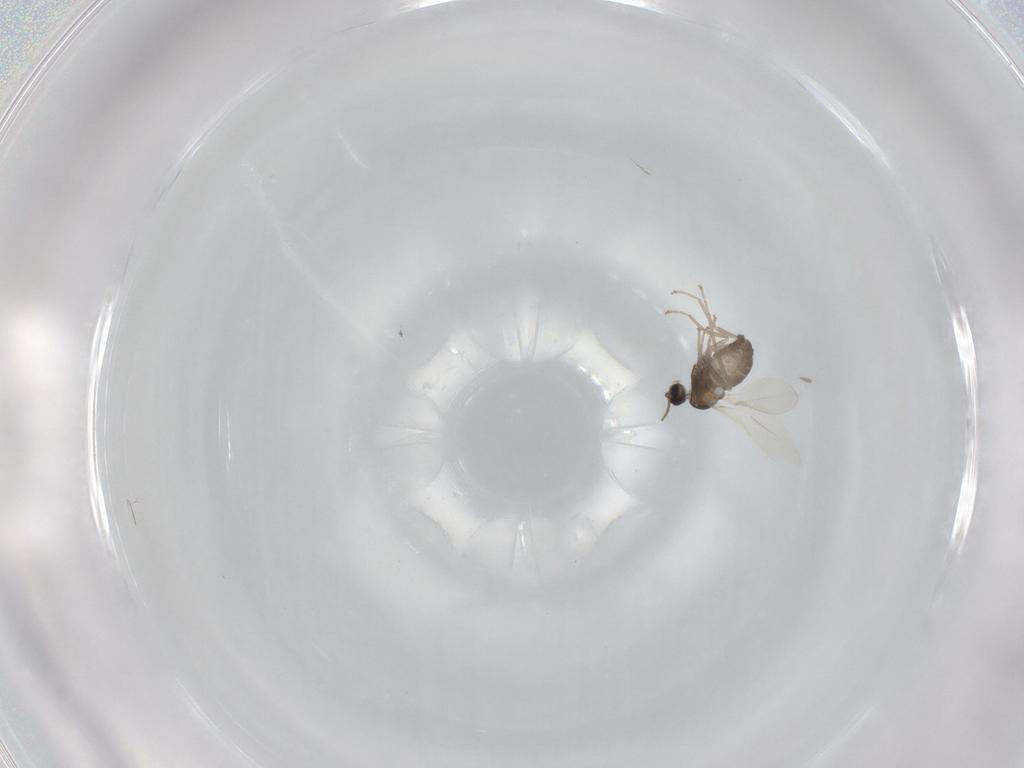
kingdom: Animalia
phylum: Arthropoda
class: Insecta
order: Diptera
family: Cecidomyiidae
